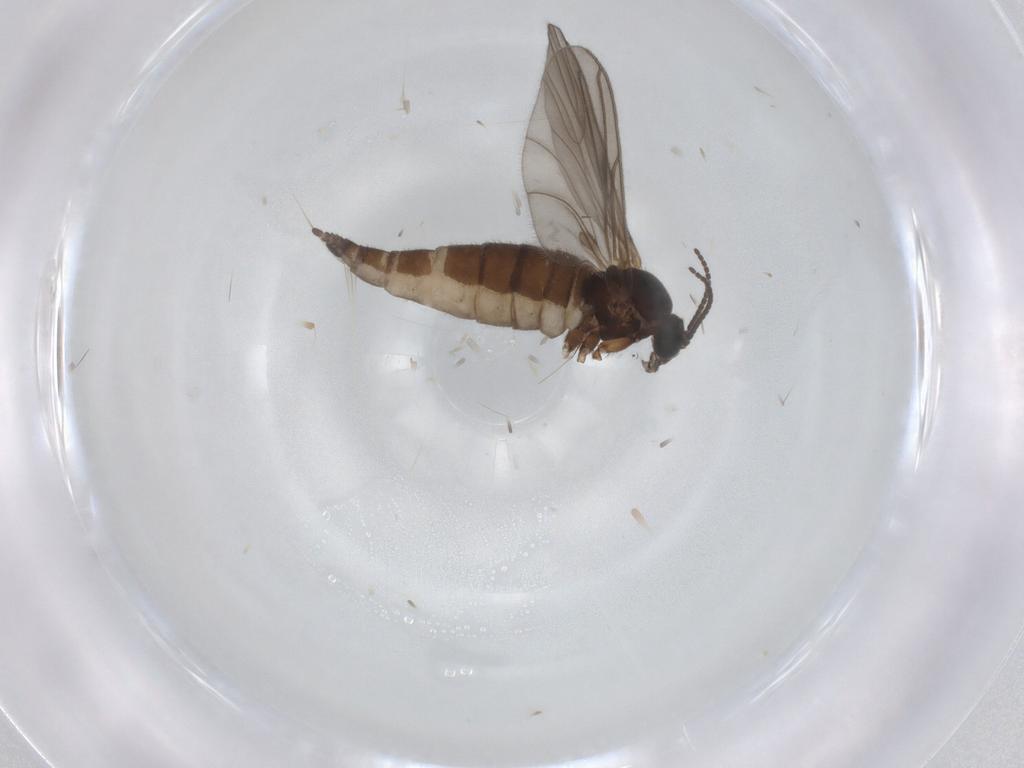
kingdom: Animalia
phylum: Arthropoda
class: Insecta
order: Diptera
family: Sciaridae
